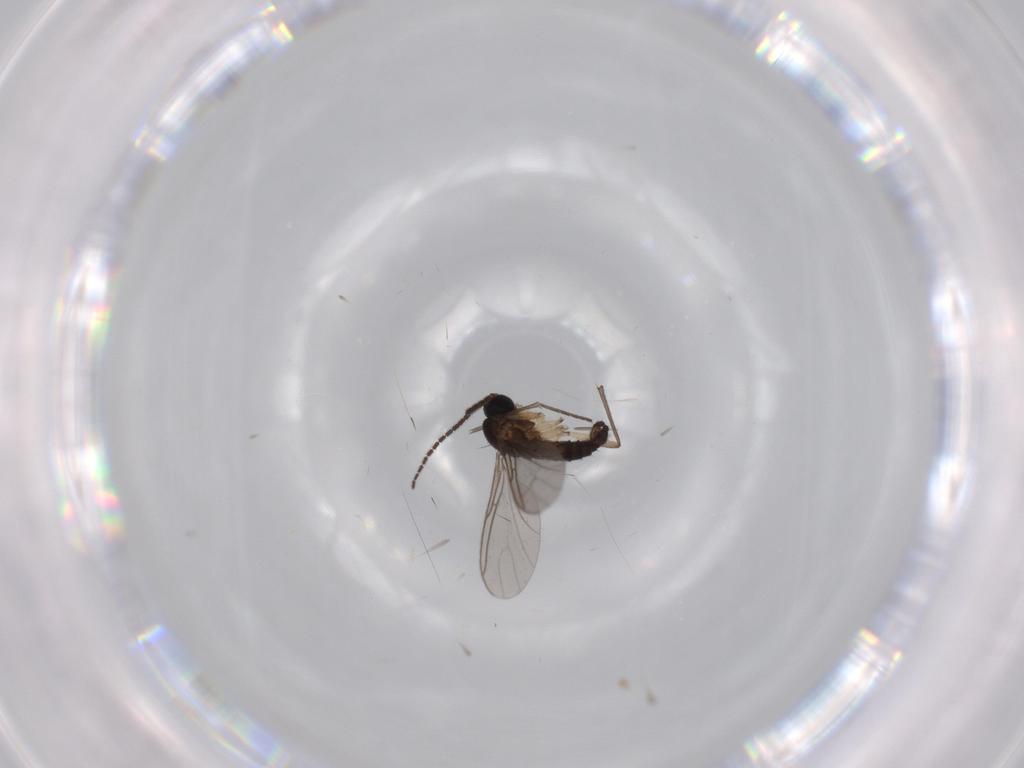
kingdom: Animalia
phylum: Arthropoda
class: Insecta
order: Diptera
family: Sciaridae
